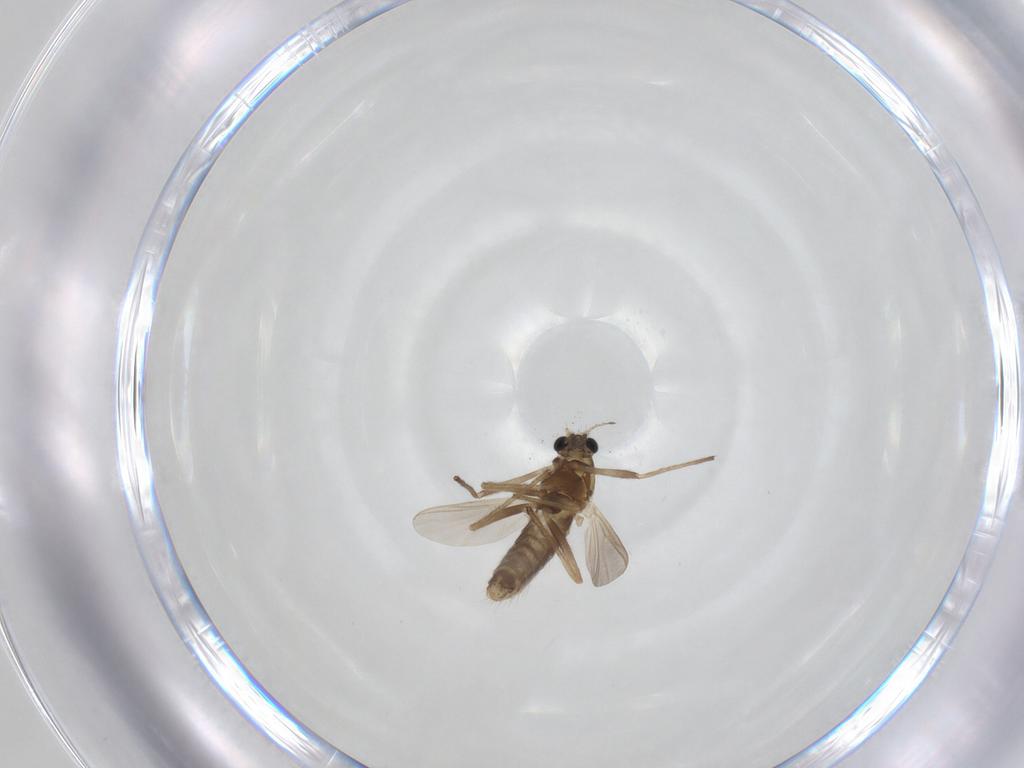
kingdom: Animalia
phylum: Arthropoda
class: Insecta
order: Diptera
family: Chironomidae
